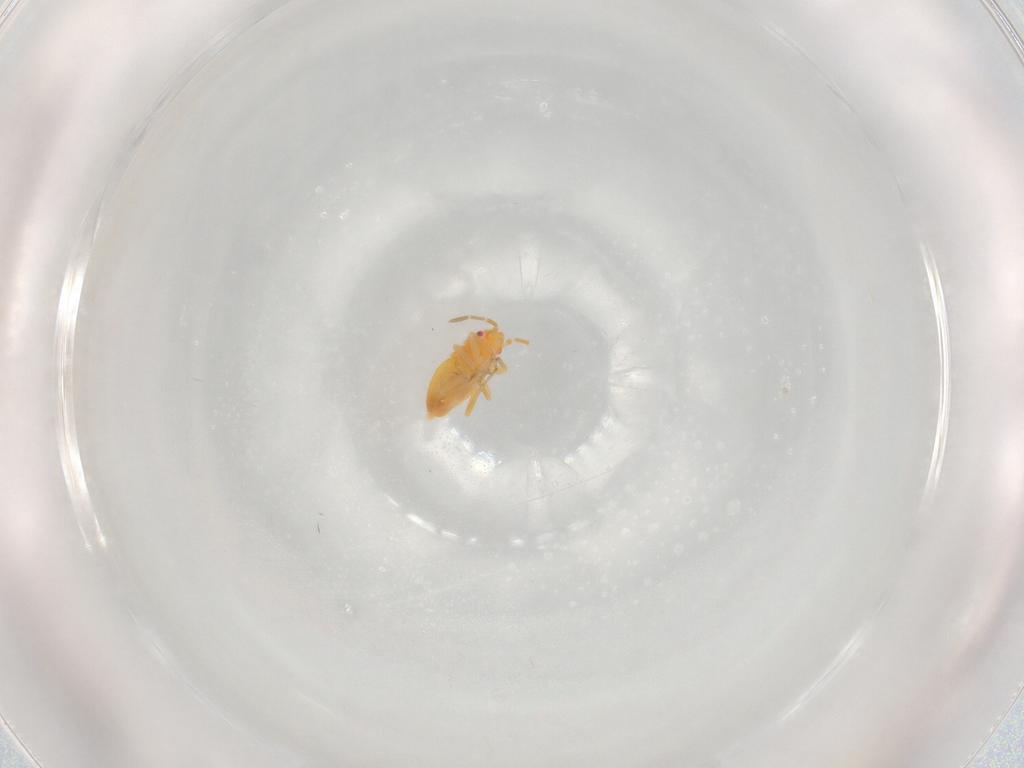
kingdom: Animalia
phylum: Arthropoda
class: Insecta
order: Hemiptera
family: Miridae
